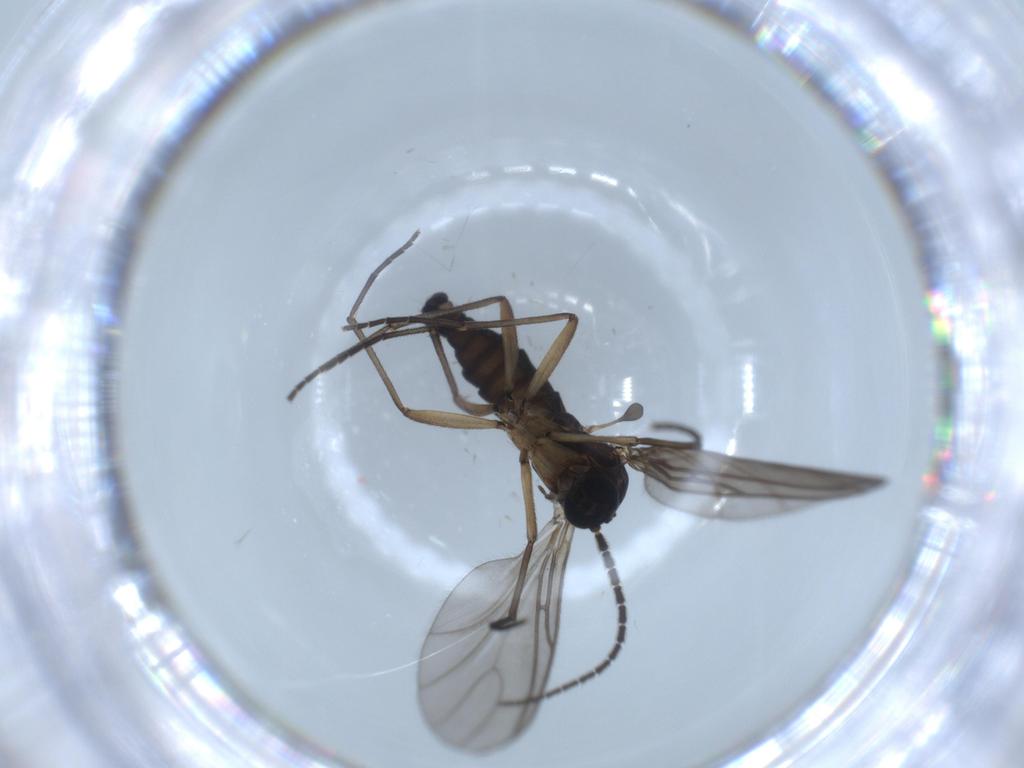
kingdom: Animalia
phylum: Arthropoda
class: Insecta
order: Diptera
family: Sciaridae
